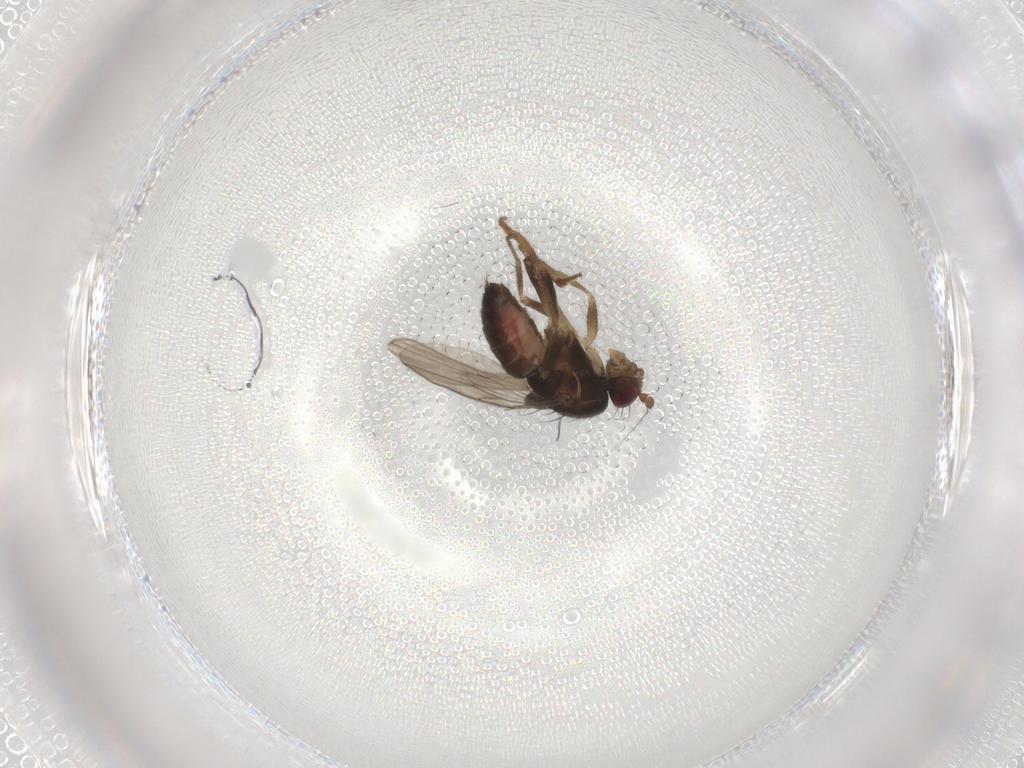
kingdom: Animalia
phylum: Arthropoda
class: Insecta
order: Diptera
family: Sphaeroceridae
